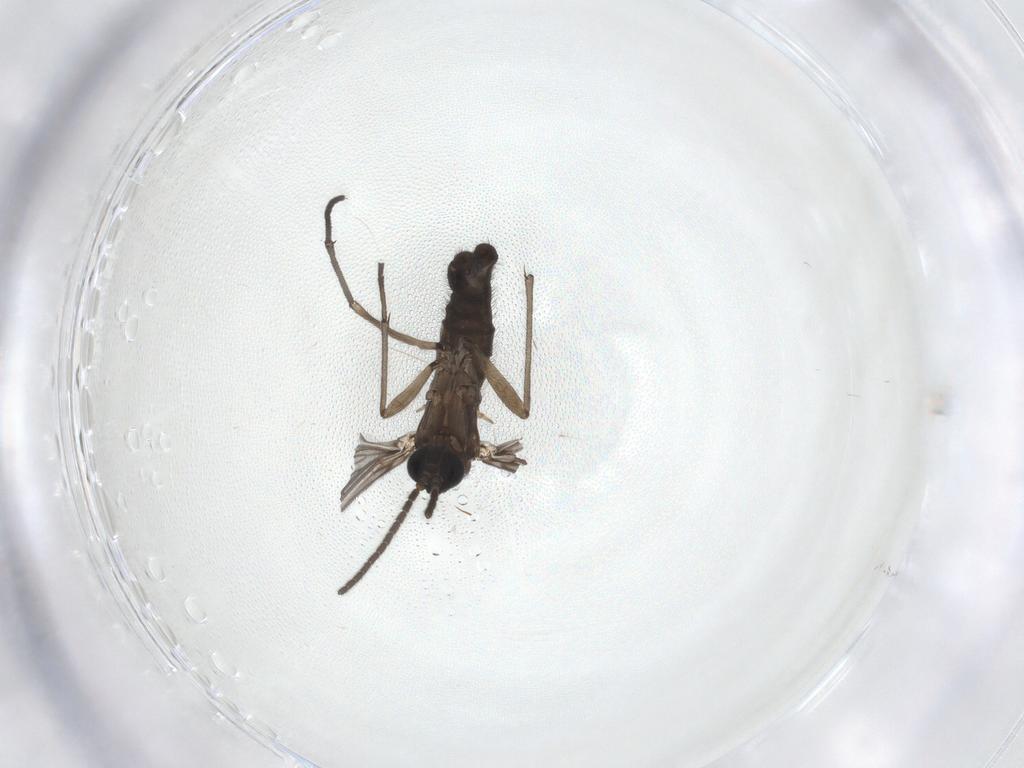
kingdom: Animalia
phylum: Arthropoda
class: Insecta
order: Diptera
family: Sciaridae
